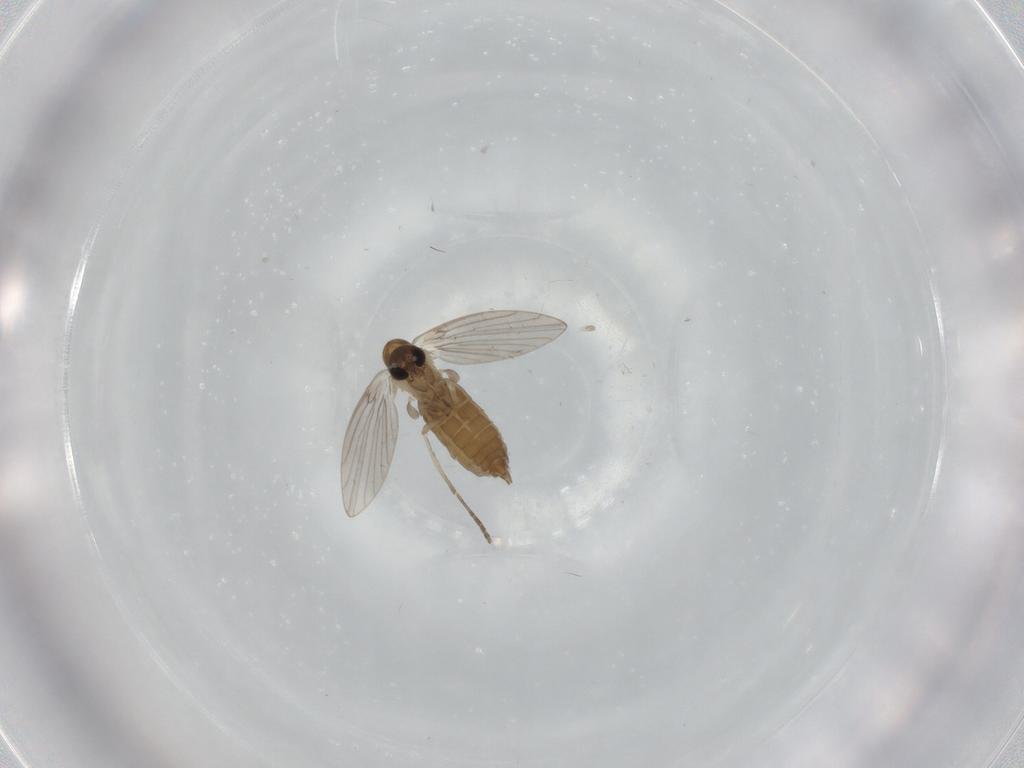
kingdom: Animalia
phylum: Arthropoda
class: Insecta
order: Diptera
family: Psychodidae
